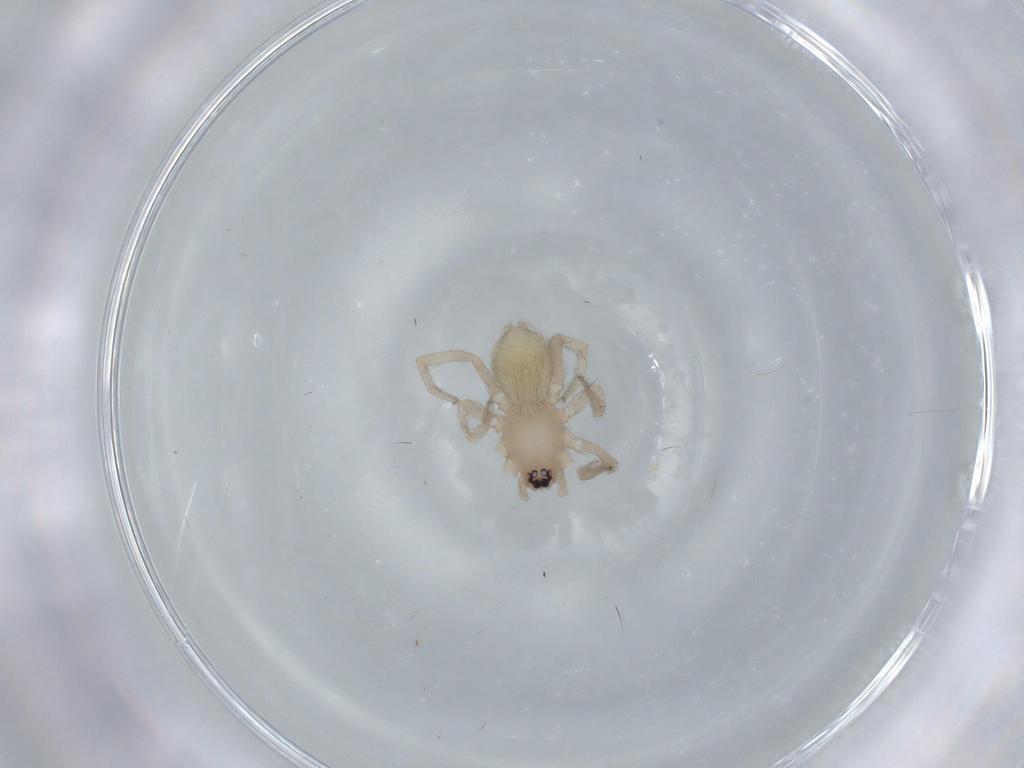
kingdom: Animalia
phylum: Arthropoda
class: Arachnida
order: Araneae
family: Gnaphosidae
